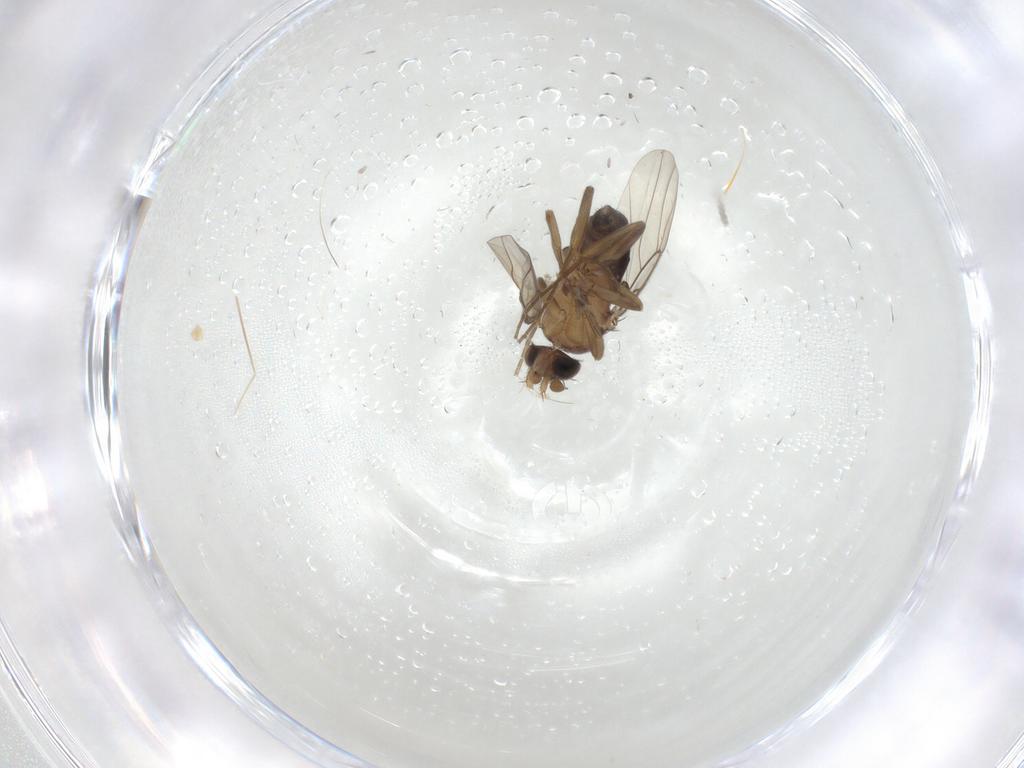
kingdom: Animalia
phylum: Arthropoda
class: Insecta
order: Diptera
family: Phoridae
